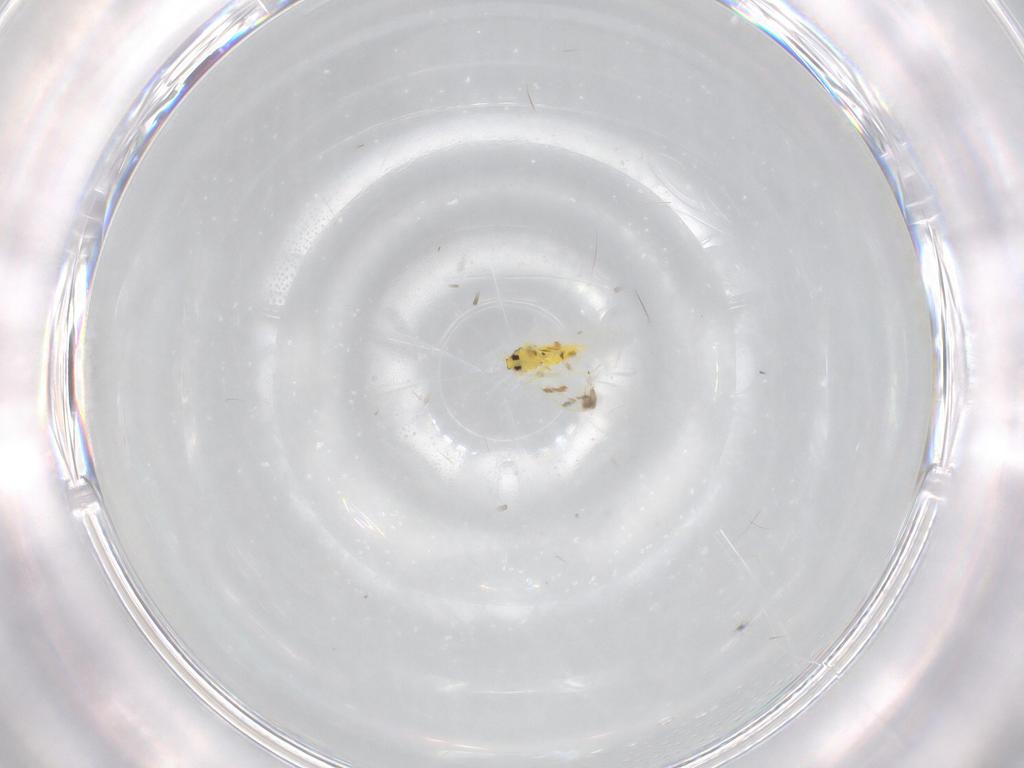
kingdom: Animalia
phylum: Arthropoda
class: Insecta
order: Hemiptera
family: Aleyrodidae
